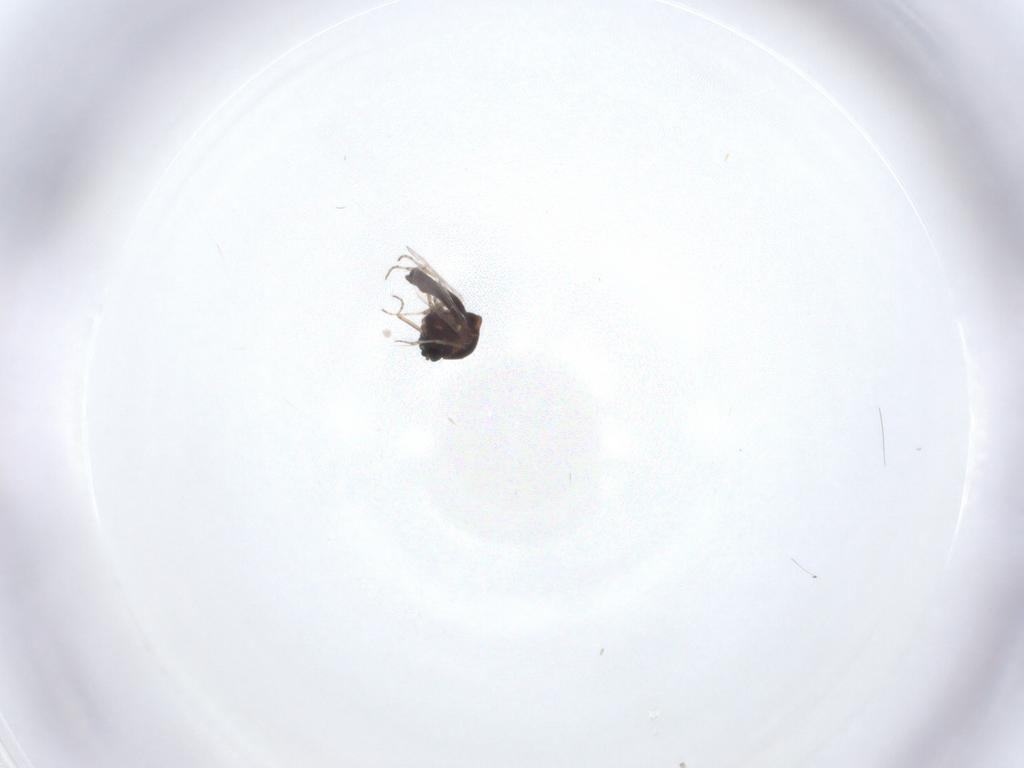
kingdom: Animalia
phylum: Arthropoda
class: Insecta
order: Diptera
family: Ceratopogonidae
